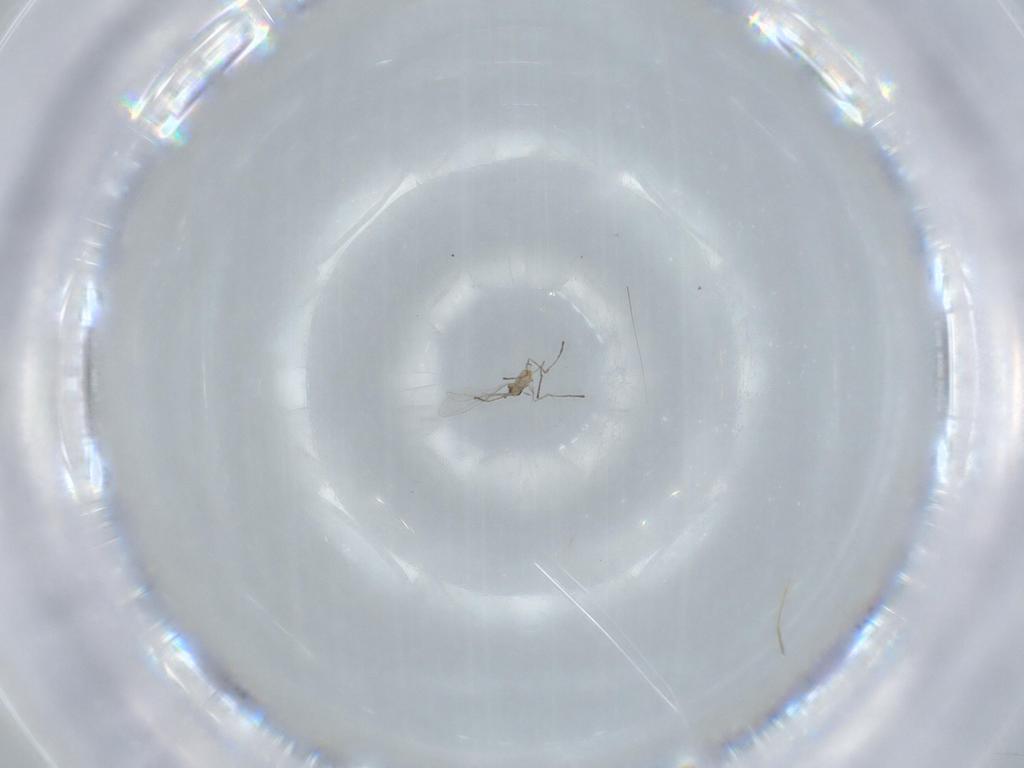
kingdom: Animalia
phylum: Arthropoda
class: Insecta
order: Diptera
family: Cecidomyiidae
